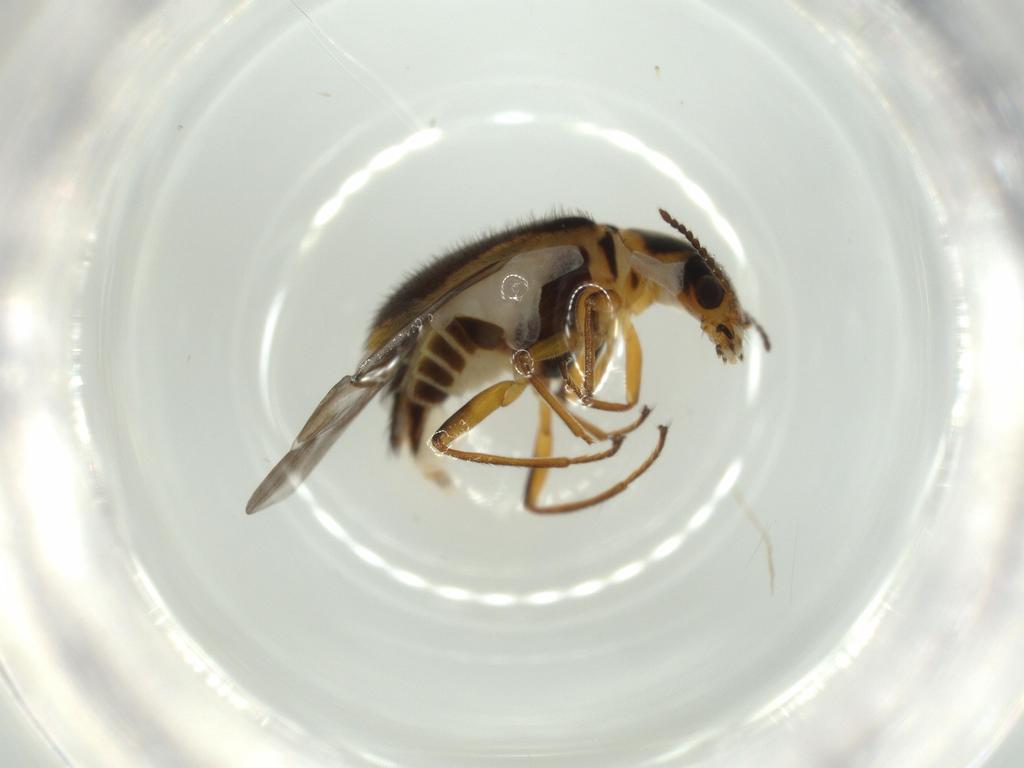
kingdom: Animalia
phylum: Arthropoda
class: Insecta
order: Coleoptera
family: Melyridae
